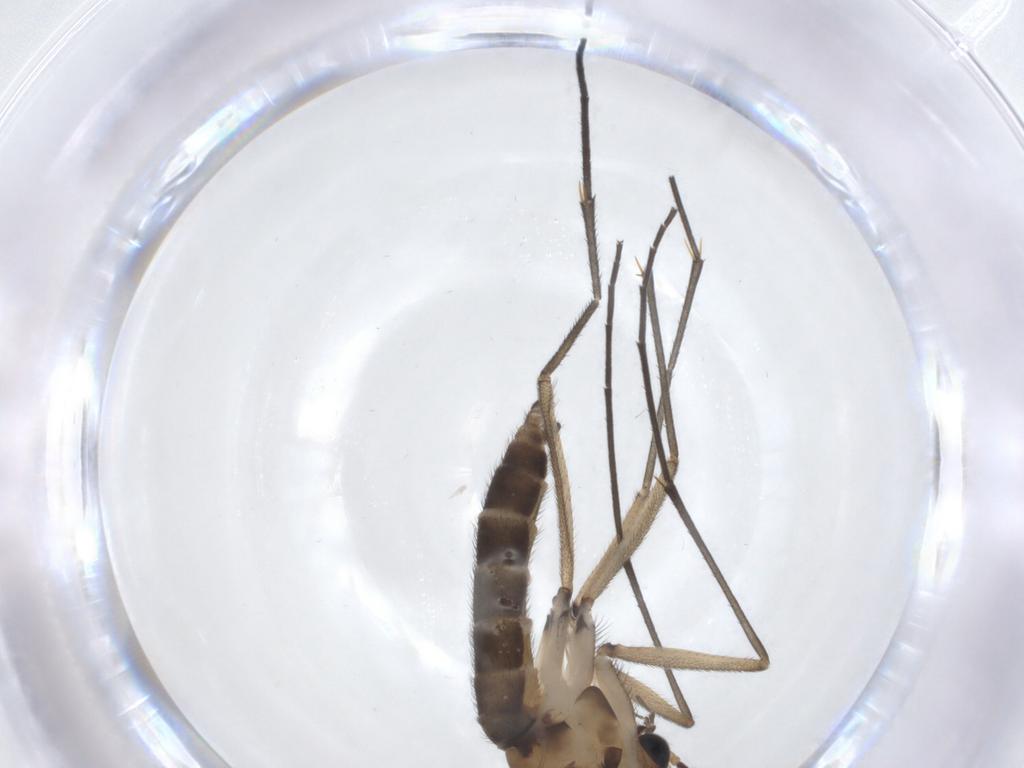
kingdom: Animalia
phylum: Arthropoda
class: Insecta
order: Diptera
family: Sciaridae
